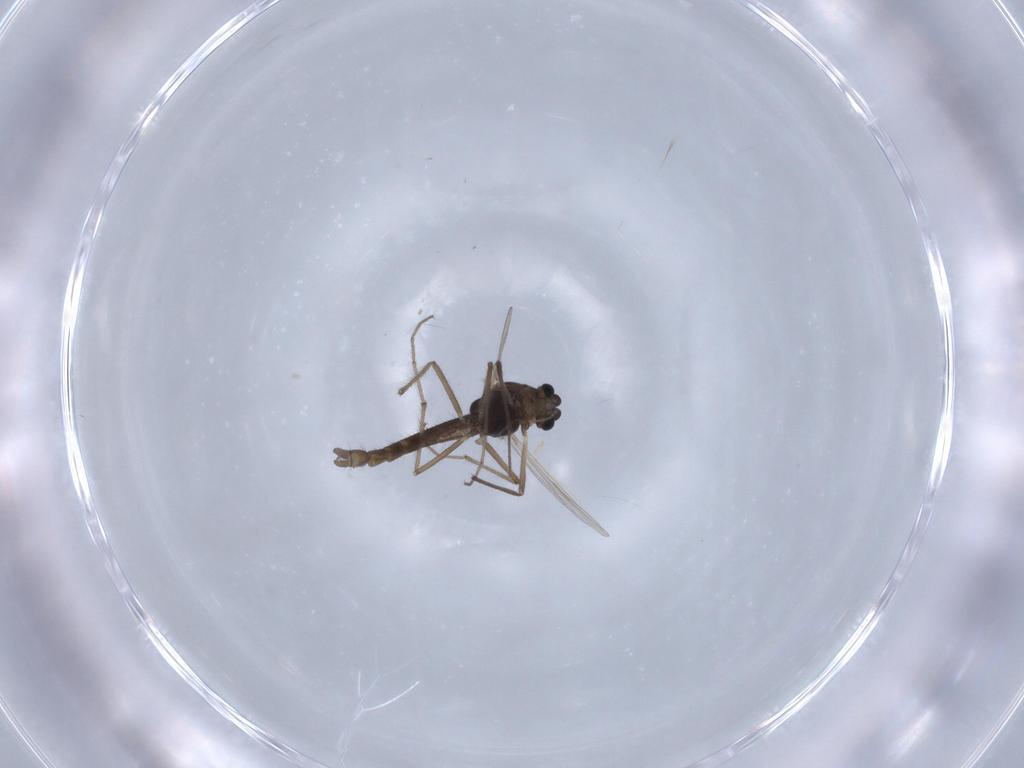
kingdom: Animalia
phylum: Arthropoda
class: Insecta
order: Diptera
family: Chironomidae
